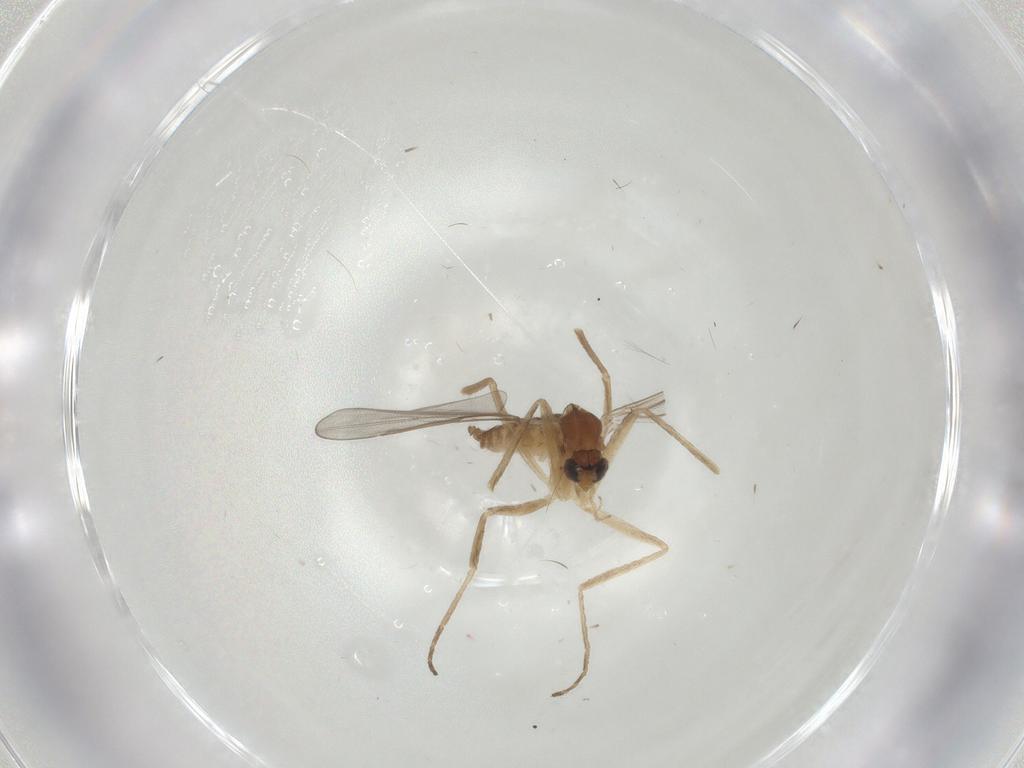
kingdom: Animalia
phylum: Arthropoda
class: Insecta
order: Diptera
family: Cecidomyiidae
